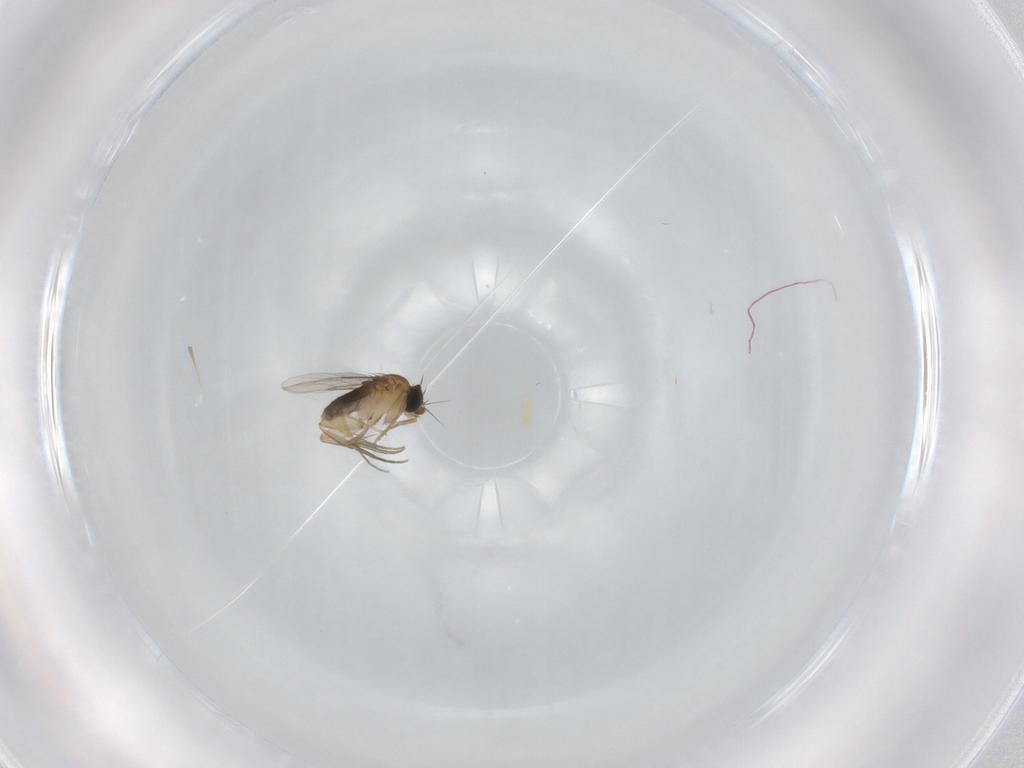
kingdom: Animalia
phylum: Arthropoda
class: Insecta
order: Diptera
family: Phoridae
